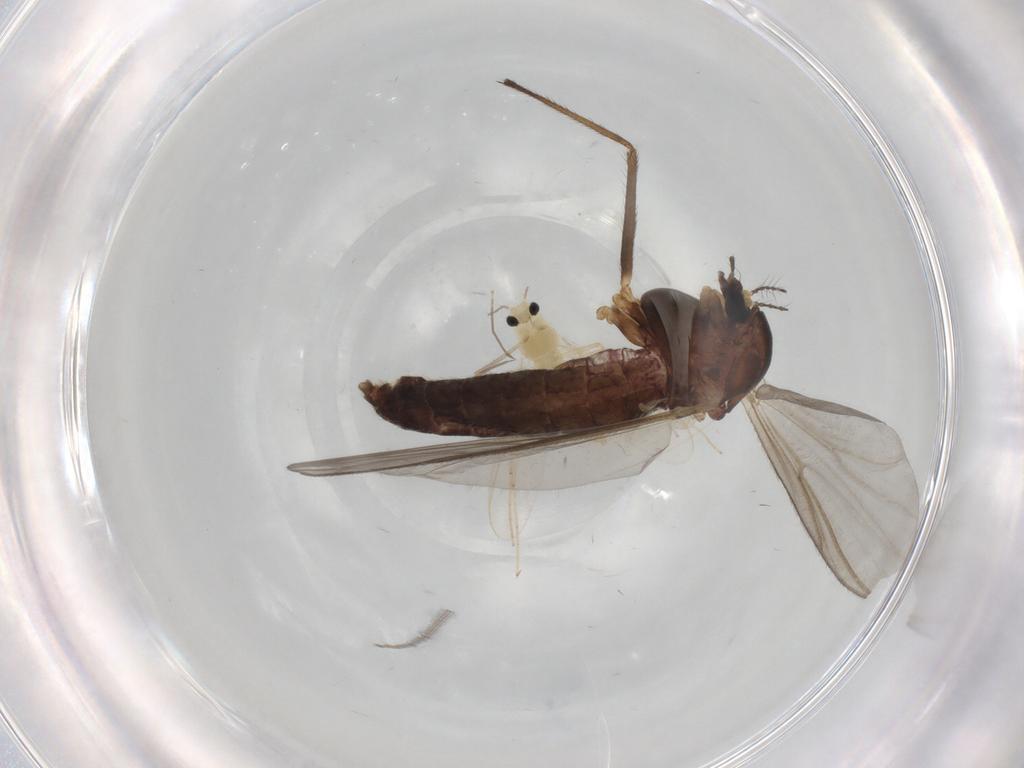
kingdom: Animalia
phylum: Arthropoda
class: Insecta
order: Diptera
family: Chironomidae
